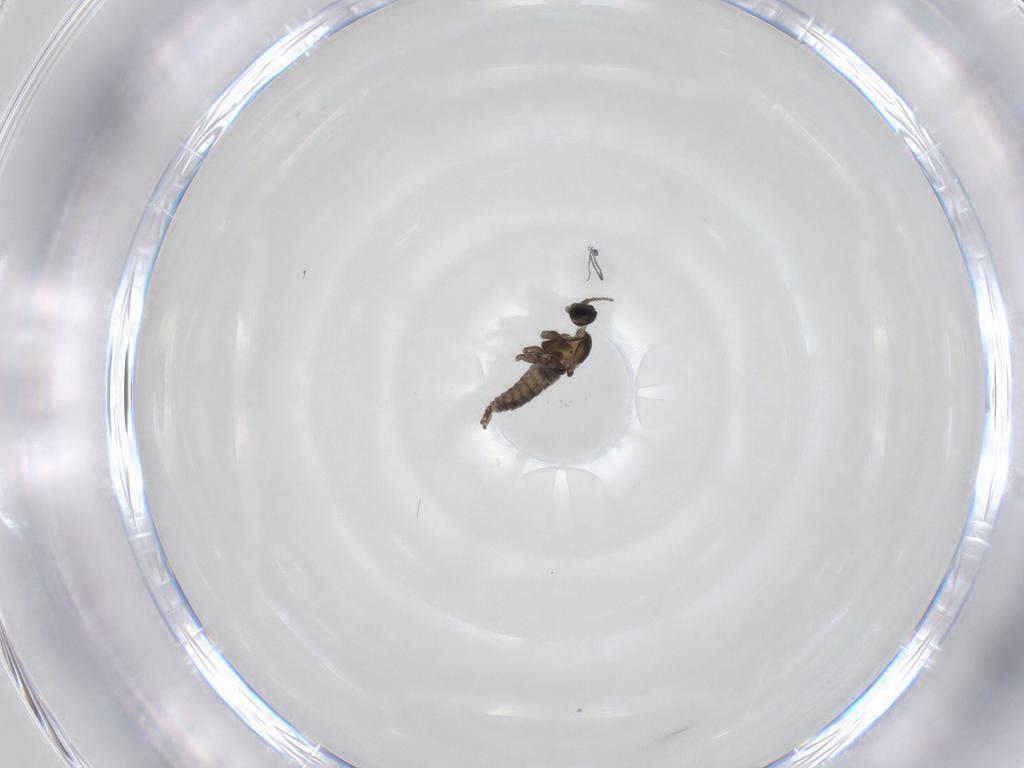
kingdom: Animalia
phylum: Arthropoda
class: Insecta
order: Diptera
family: Cecidomyiidae
